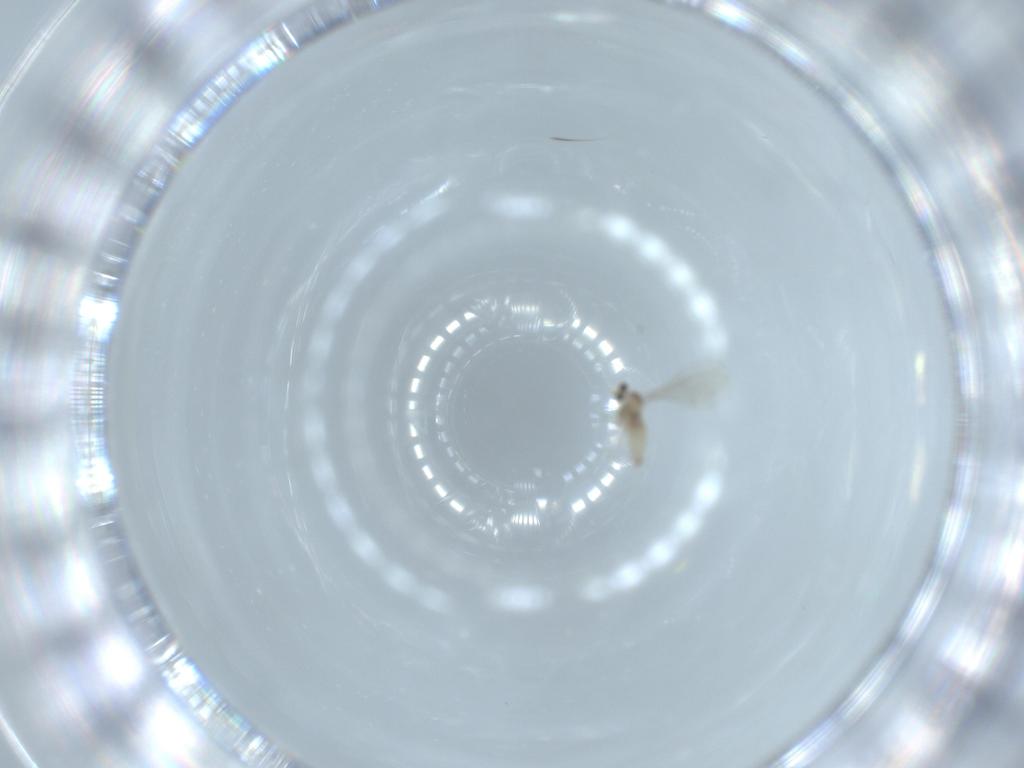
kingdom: Animalia
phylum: Arthropoda
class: Insecta
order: Diptera
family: Cecidomyiidae
